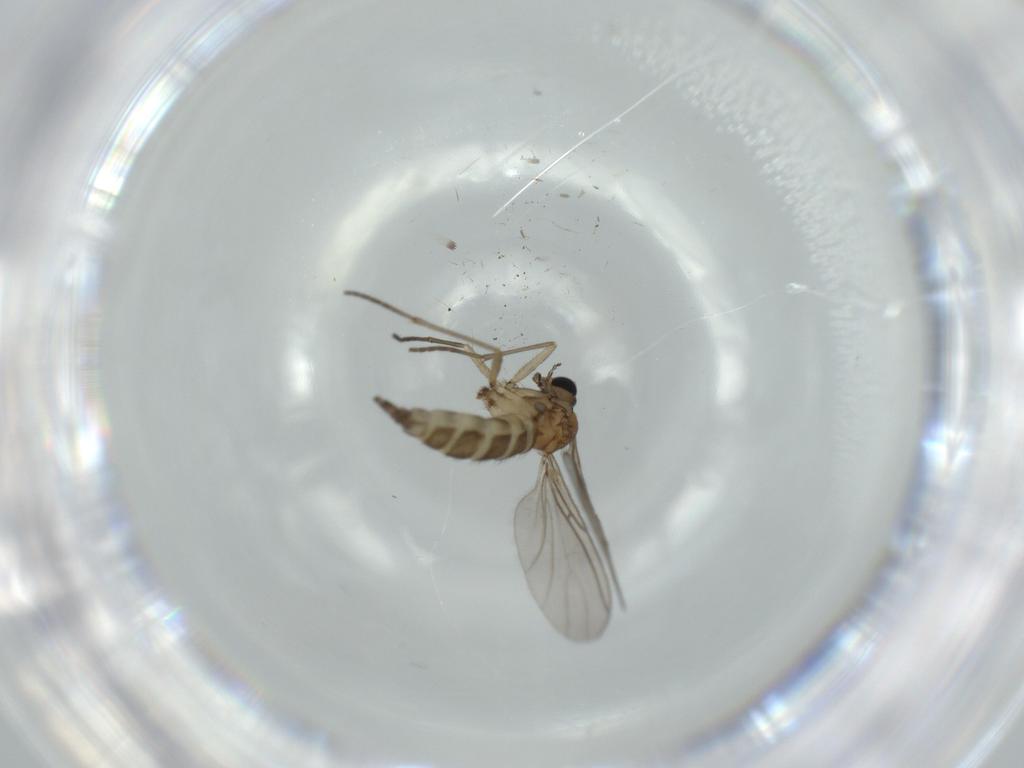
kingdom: Animalia
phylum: Arthropoda
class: Insecta
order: Diptera
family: Sciaridae
